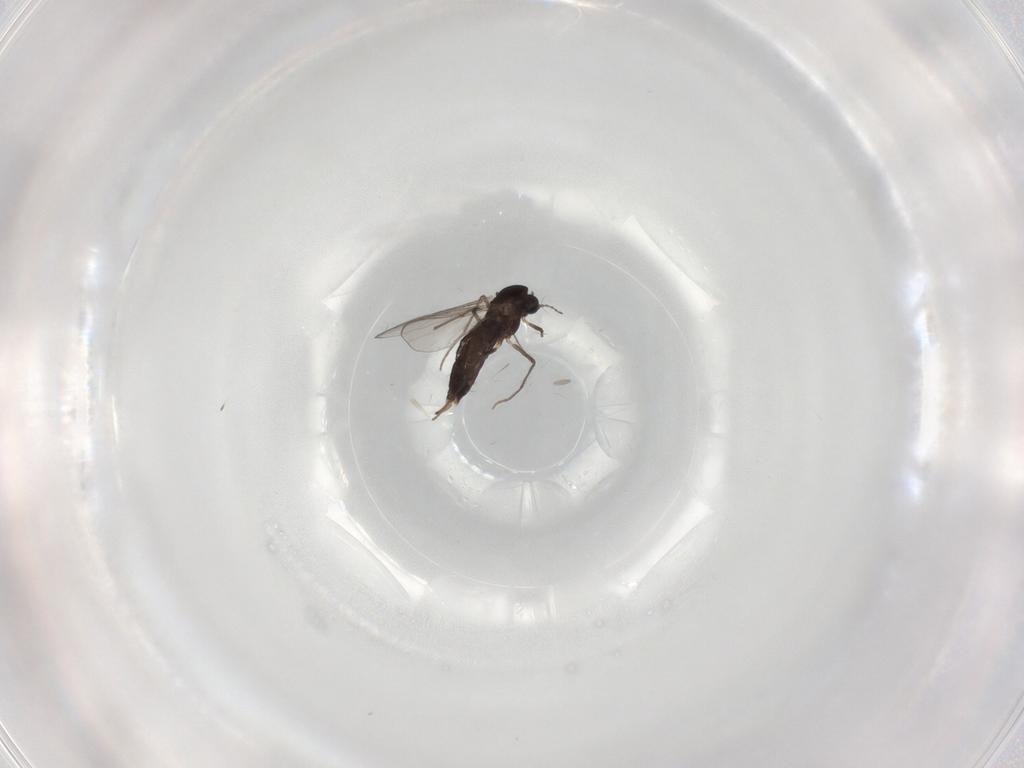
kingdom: Animalia
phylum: Arthropoda
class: Insecta
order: Diptera
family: Chironomidae
